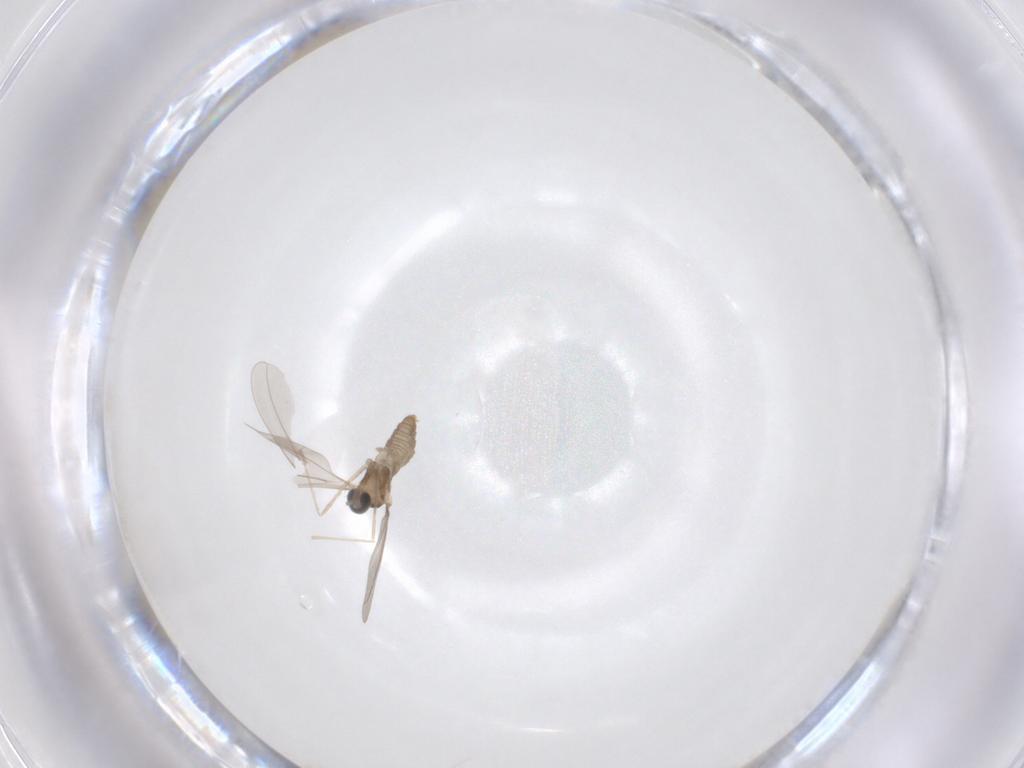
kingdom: Animalia
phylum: Arthropoda
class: Insecta
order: Diptera
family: Cecidomyiidae
